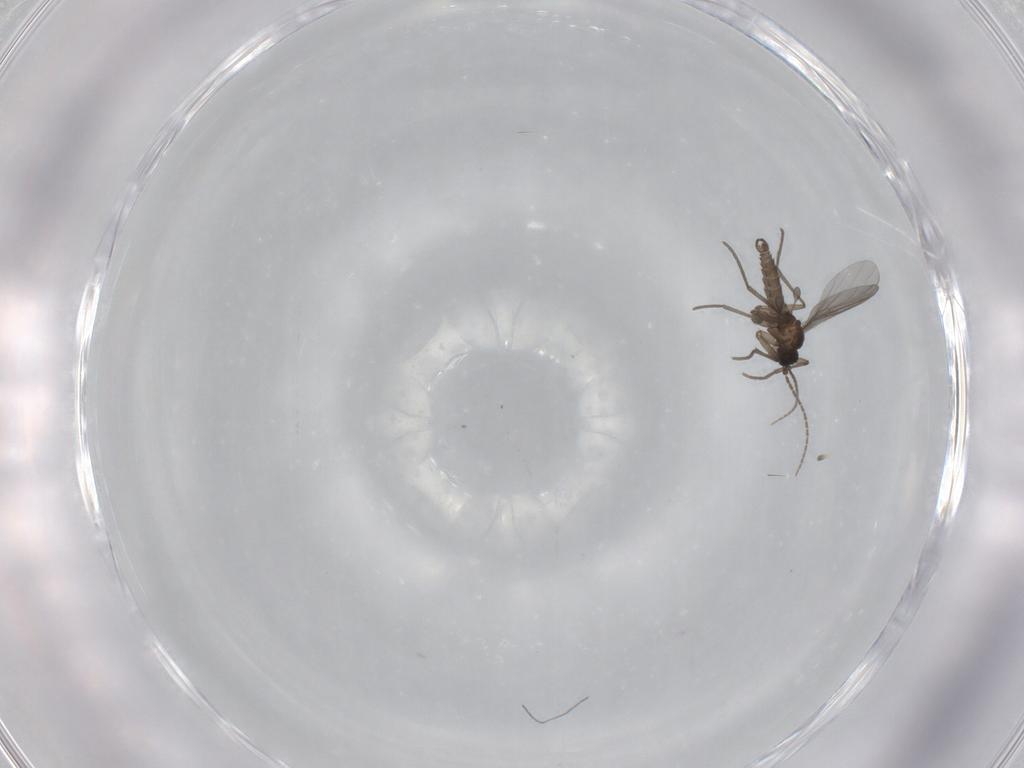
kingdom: Animalia
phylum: Arthropoda
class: Insecta
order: Diptera
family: Sciaridae
